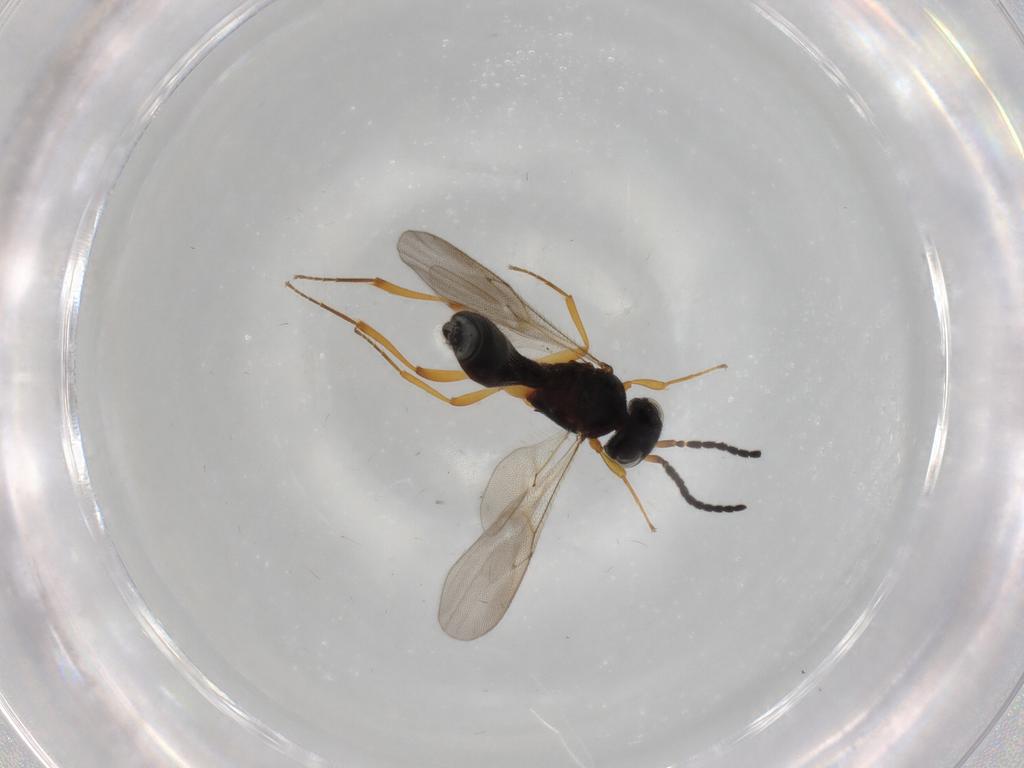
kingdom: Animalia
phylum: Arthropoda
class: Insecta
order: Hymenoptera
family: Scelionidae
